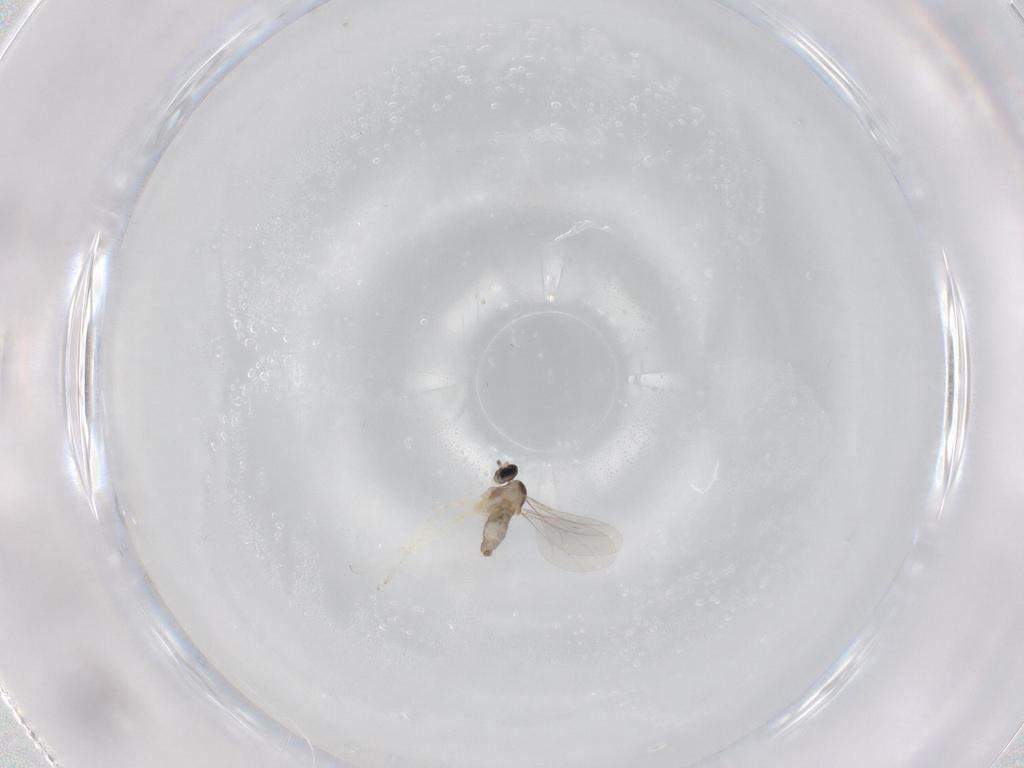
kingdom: Animalia
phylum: Arthropoda
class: Insecta
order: Diptera
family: Cecidomyiidae
